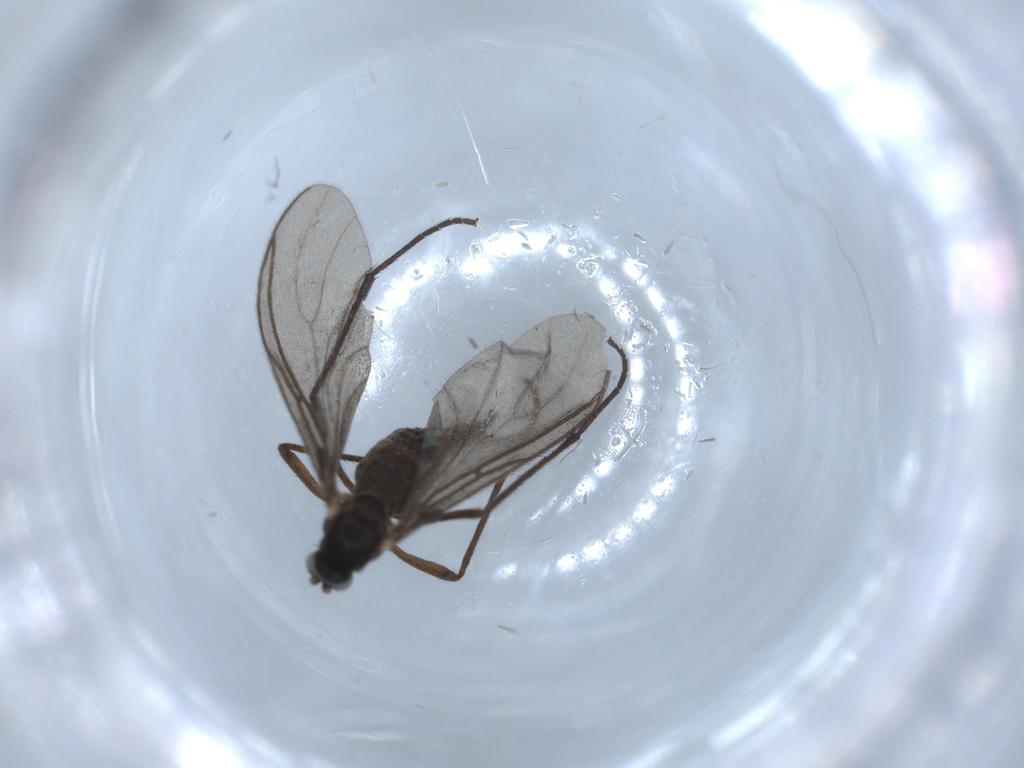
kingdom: Animalia
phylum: Arthropoda
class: Insecta
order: Diptera
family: Sciaridae
